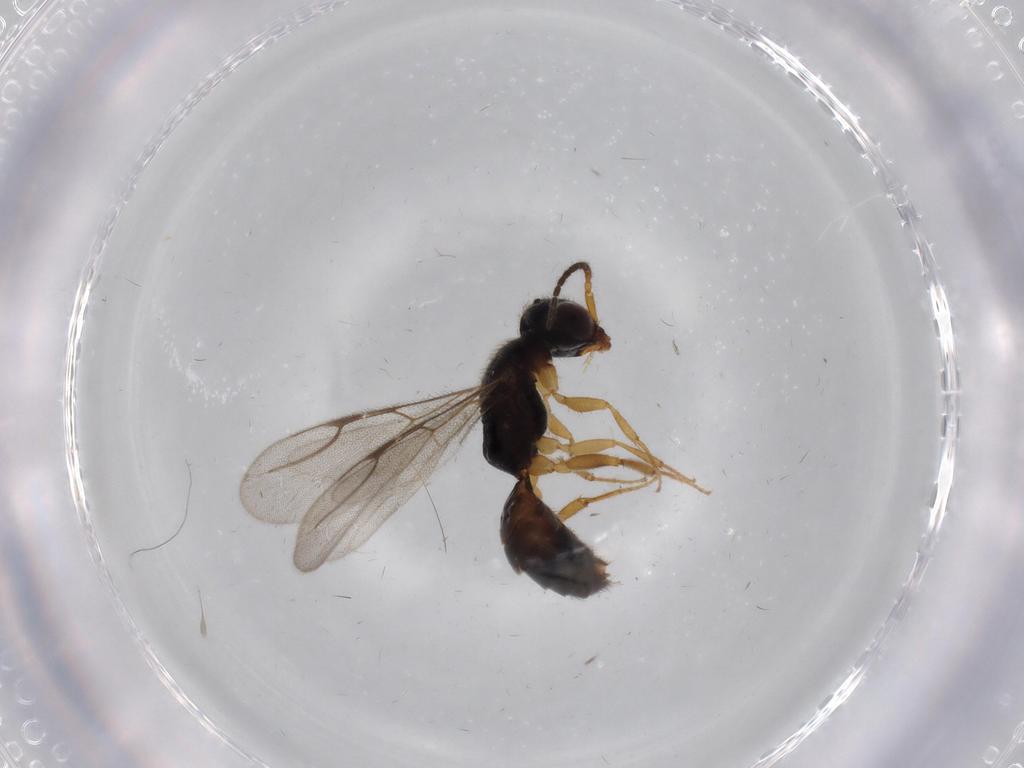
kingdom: Animalia
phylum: Arthropoda
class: Insecta
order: Hymenoptera
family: Bethylidae
